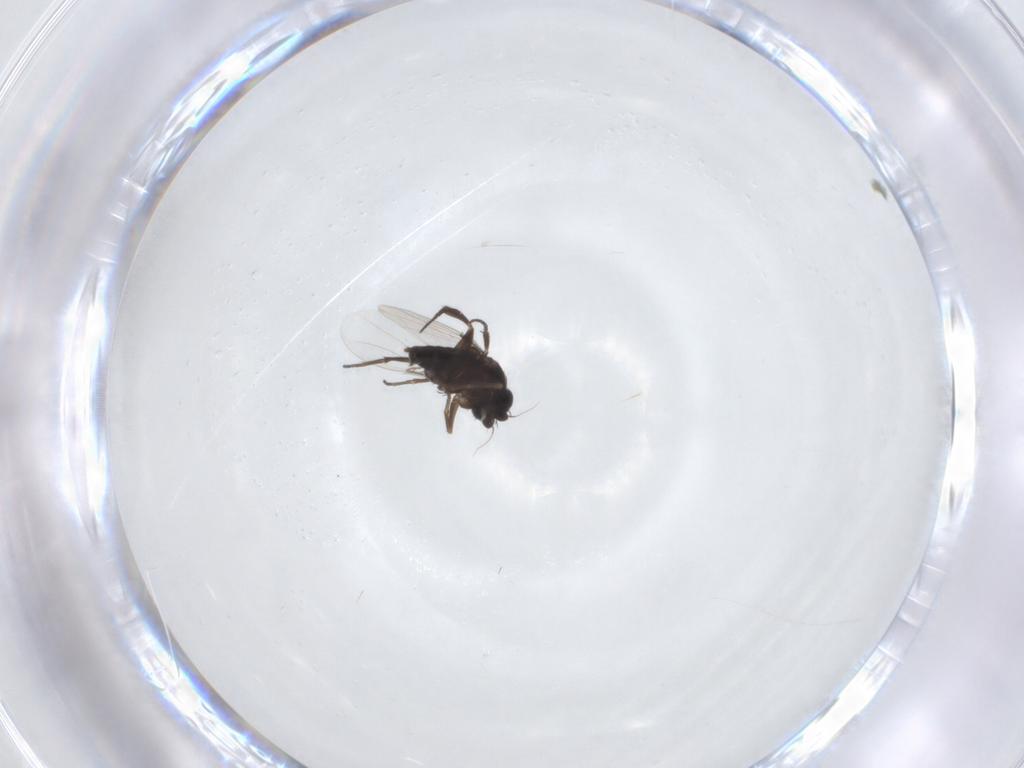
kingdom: Animalia
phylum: Arthropoda
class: Insecta
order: Diptera
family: Phoridae
